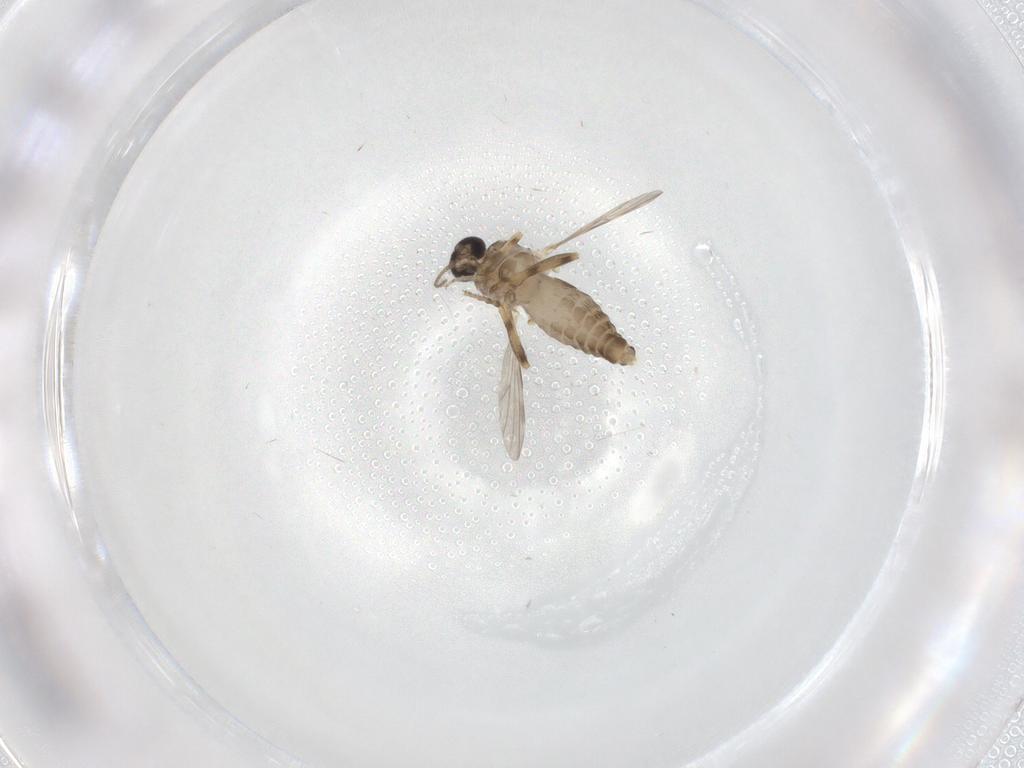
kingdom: Animalia
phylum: Arthropoda
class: Insecta
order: Diptera
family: Ceratopogonidae
